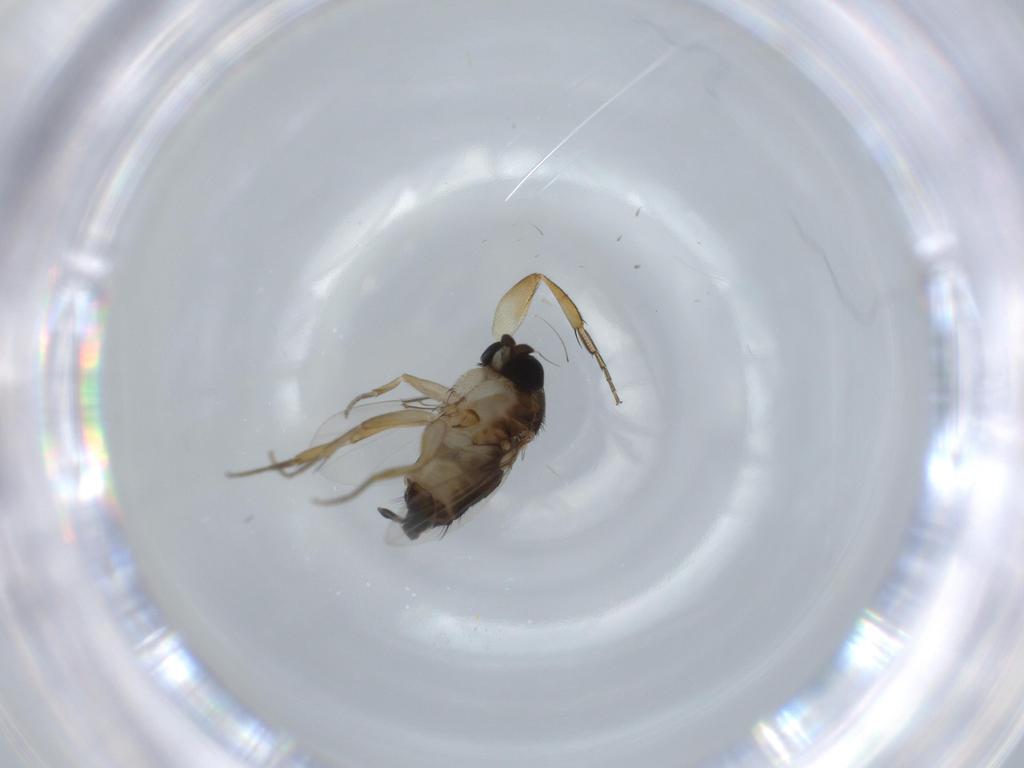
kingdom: Animalia
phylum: Arthropoda
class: Insecta
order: Diptera
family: Phoridae
